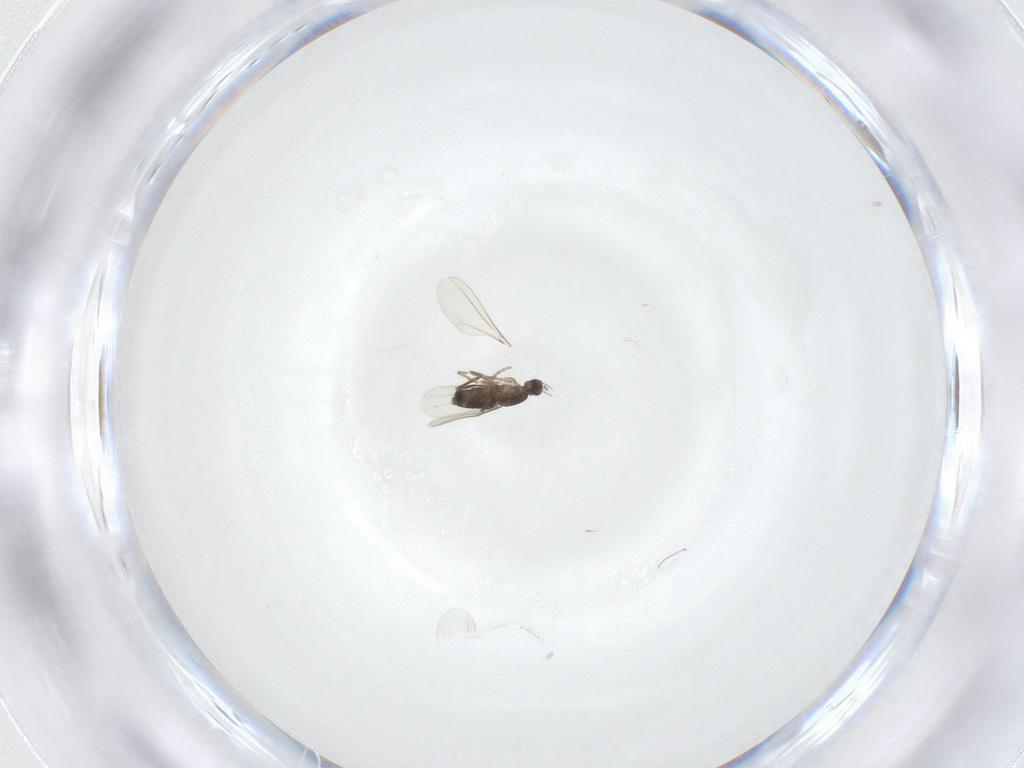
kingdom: Animalia
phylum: Arthropoda
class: Insecta
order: Diptera
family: Phoridae
